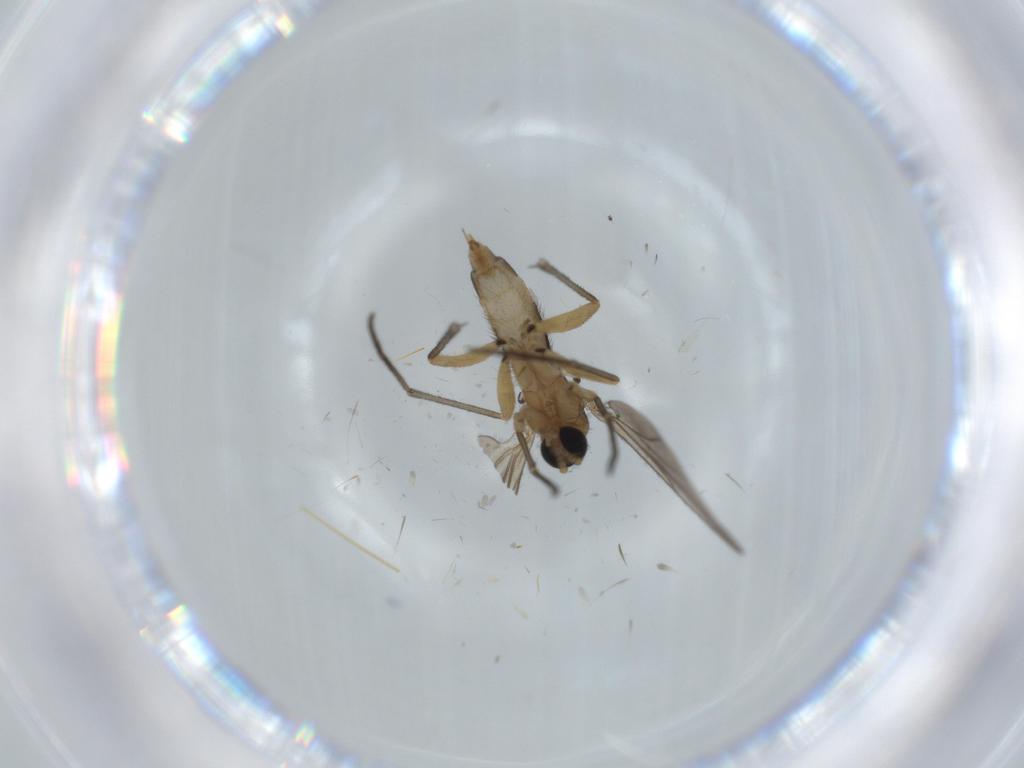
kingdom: Animalia
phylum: Arthropoda
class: Insecta
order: Diptera
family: Sciaridae
